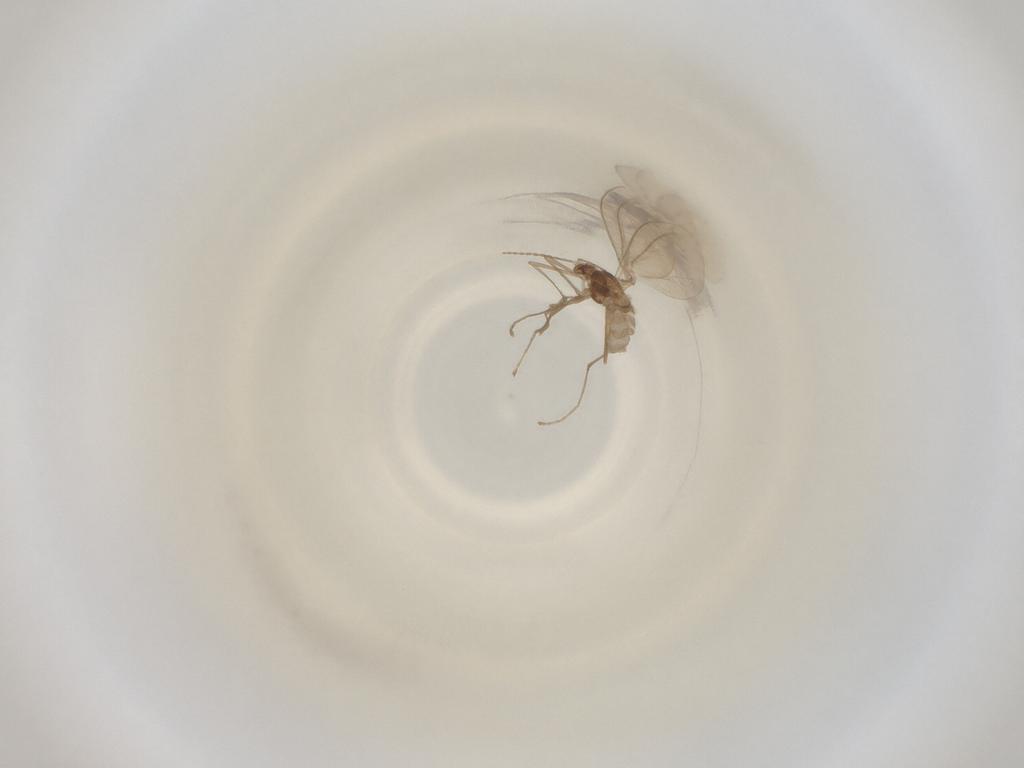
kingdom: Animalia
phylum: Arthropoda
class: Insecta
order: Diptera
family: Cecidomyiidae
